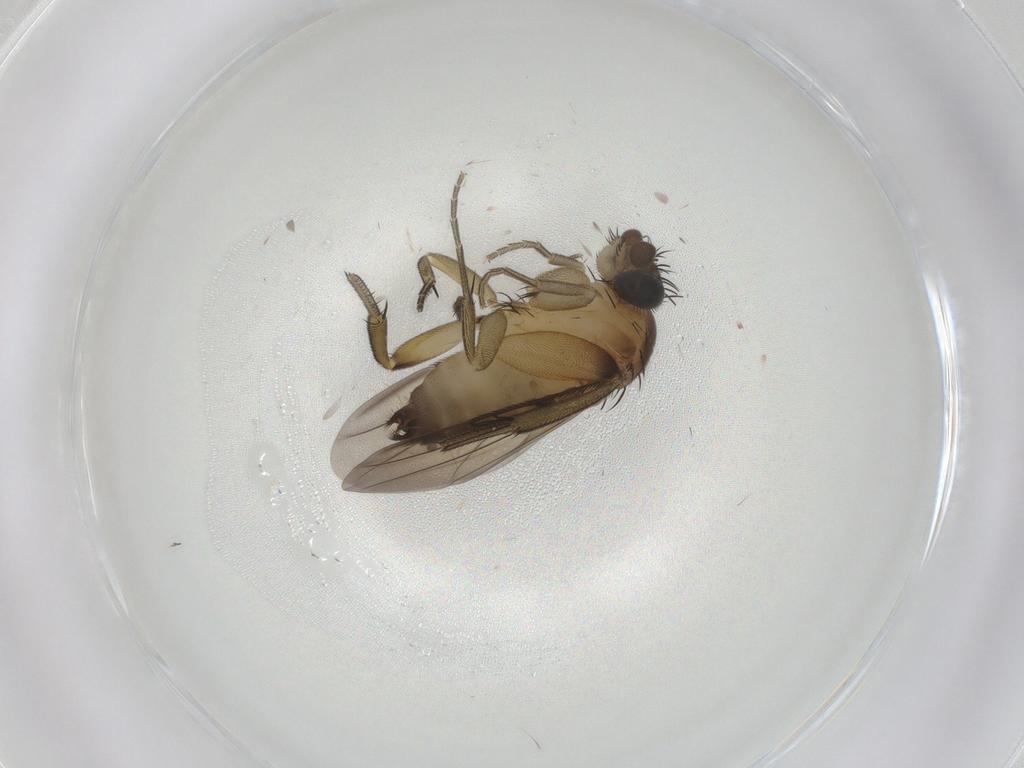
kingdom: Animalia
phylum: Arthropoda
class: Insecta
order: Diptera
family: Phoridae
